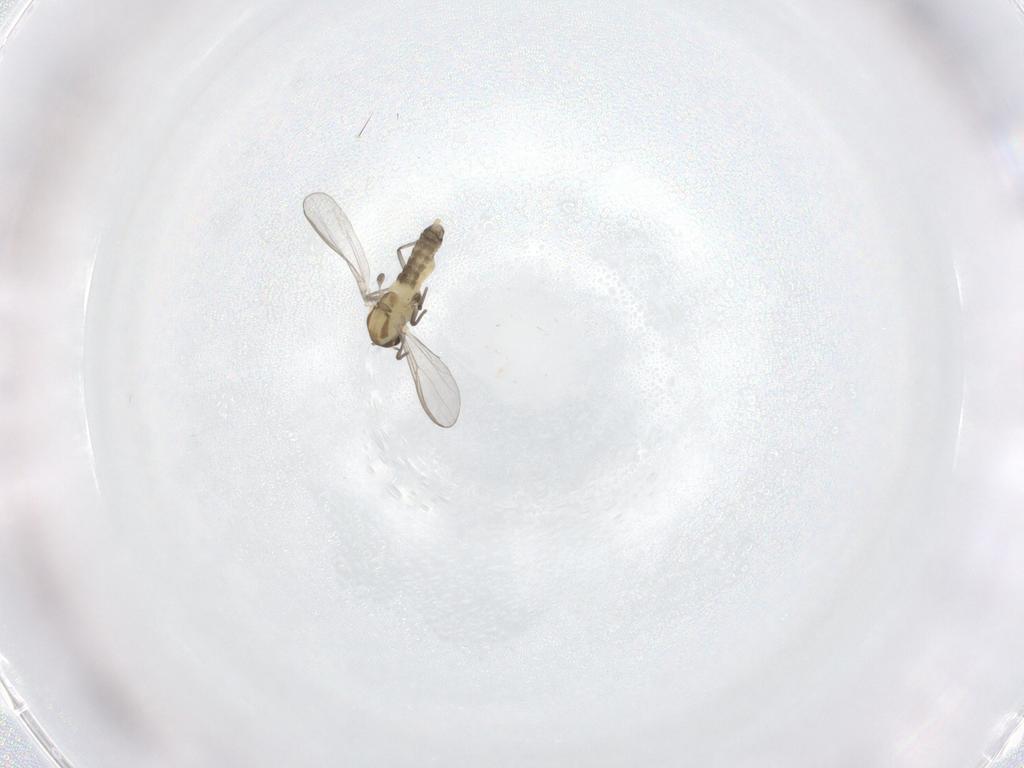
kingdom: Animalia
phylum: Arthropoda
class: Insecta
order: Diptera
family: Chironomidae
